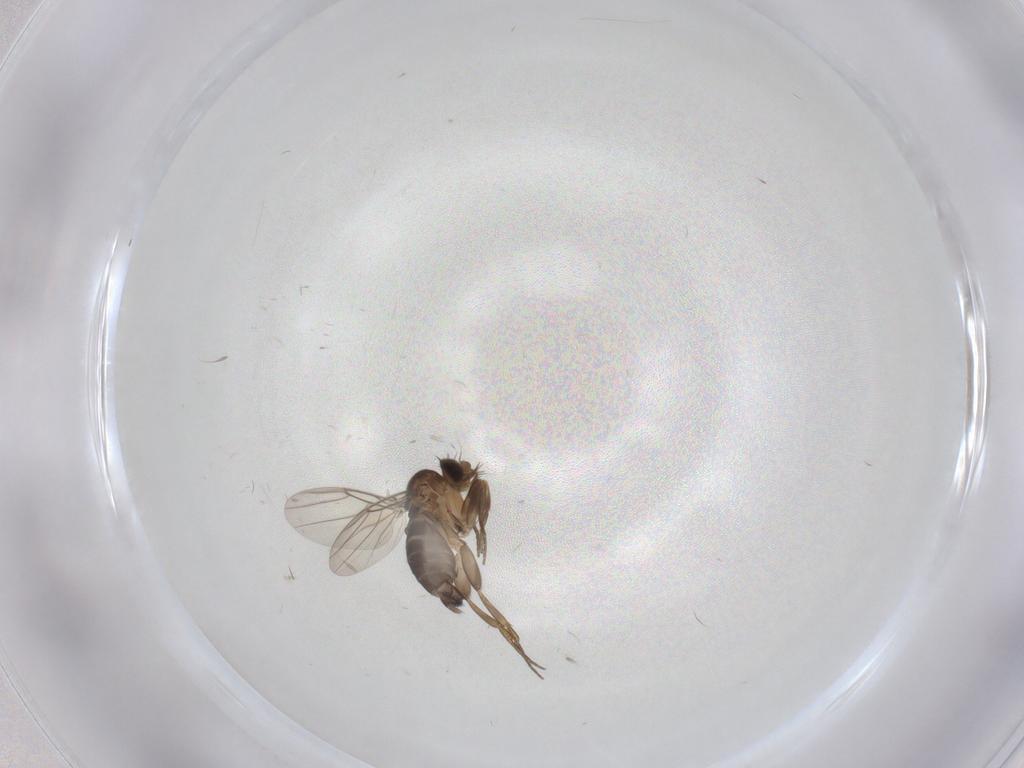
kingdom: Animalia
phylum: Arthropoda
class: Insecta
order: Diptera
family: Phoridae
